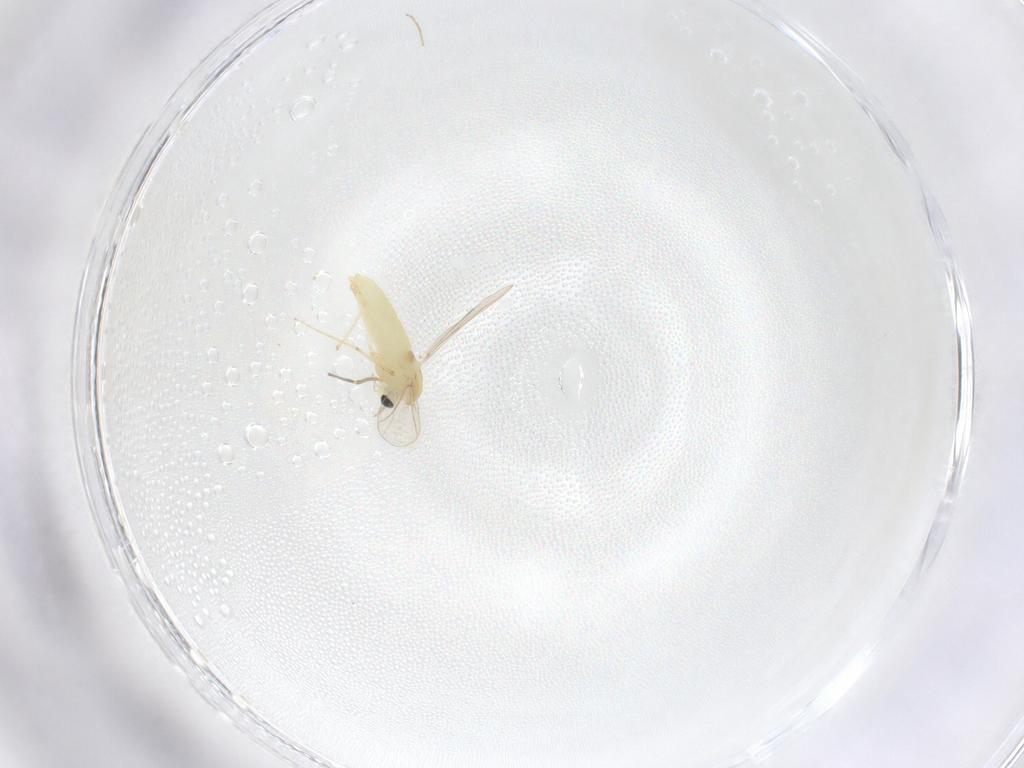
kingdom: Animalia
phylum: Arthropoda
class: Insecta
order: Diptera
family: Chironomidae
